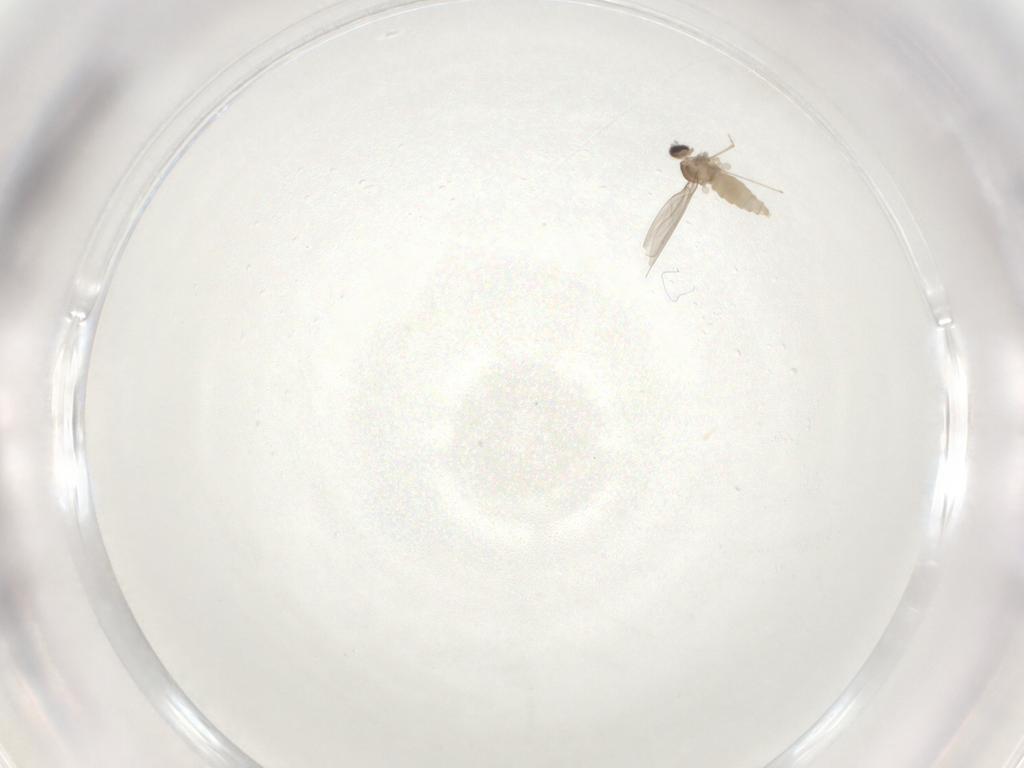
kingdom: Animalia
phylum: Arthropoda
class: Insecta
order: Diptera
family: Cecidomyiidae
